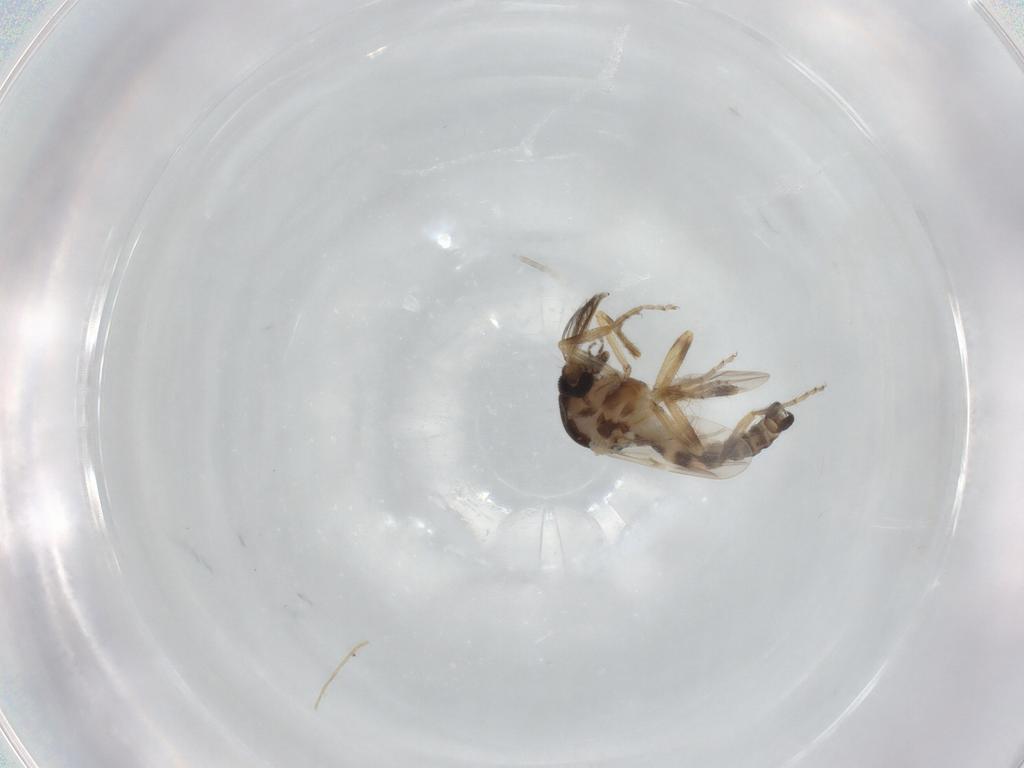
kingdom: Animalia
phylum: Arthropoda
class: Insecta
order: Diptera
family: Ceratopogonidae
